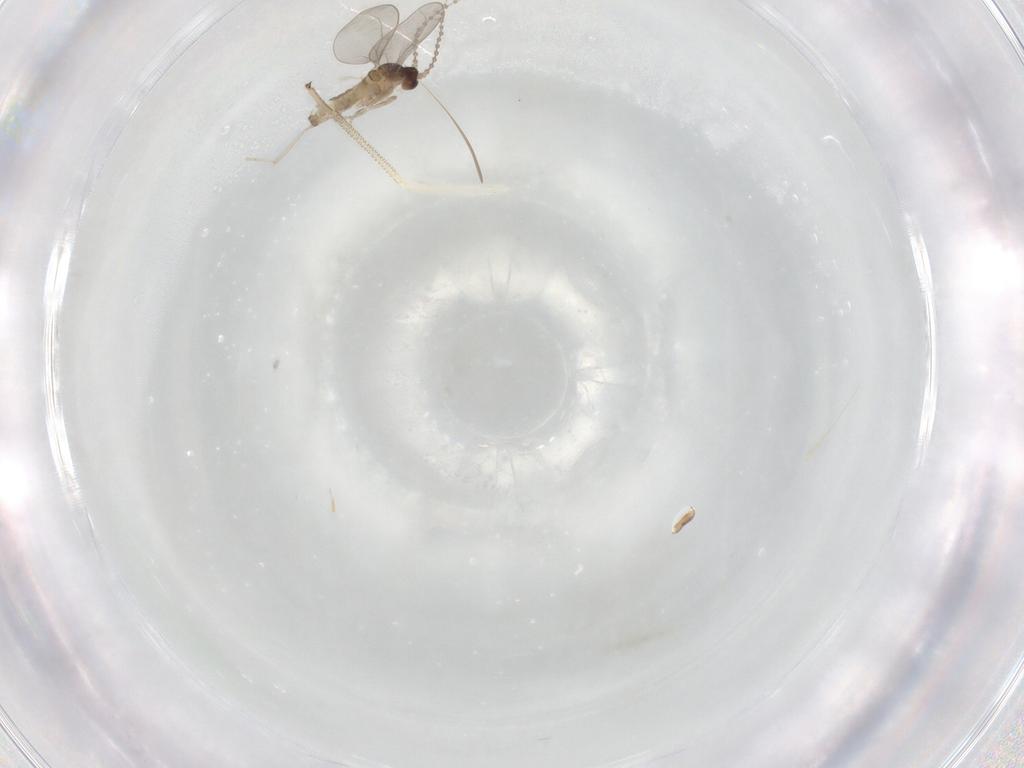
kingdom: Animalia
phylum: Arthropoda
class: Insecta
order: Diptera
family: Cecidomyiidae
